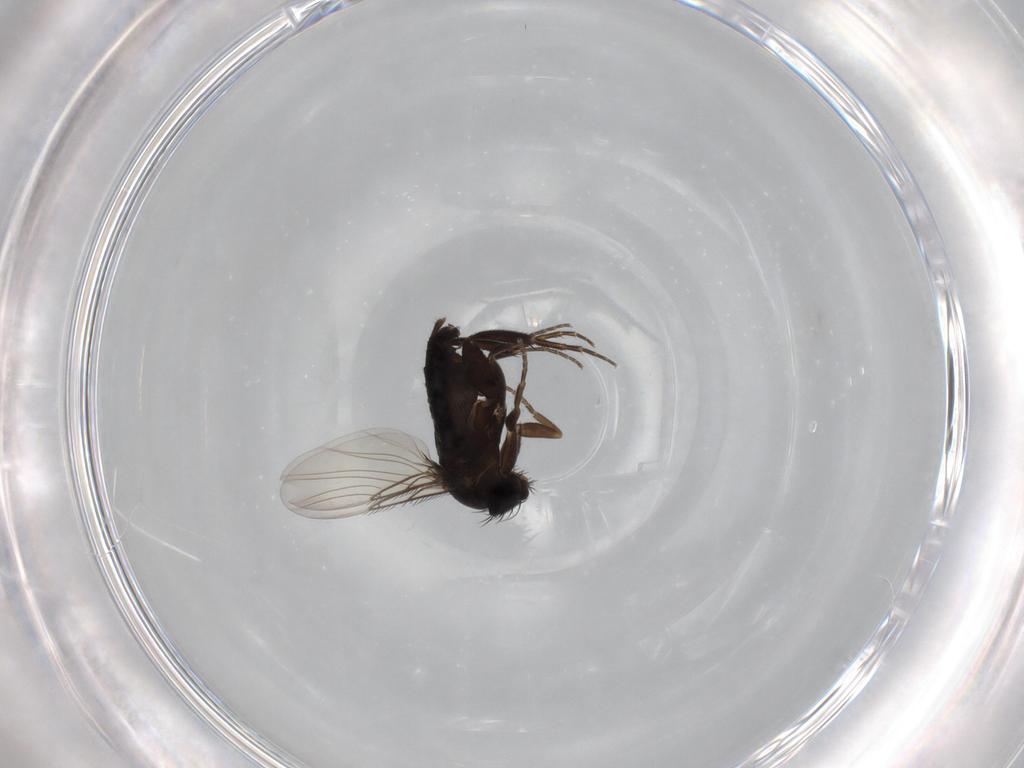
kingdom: Animalia
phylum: Arthropoda
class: Insecta
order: Diptera
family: Phoridae
